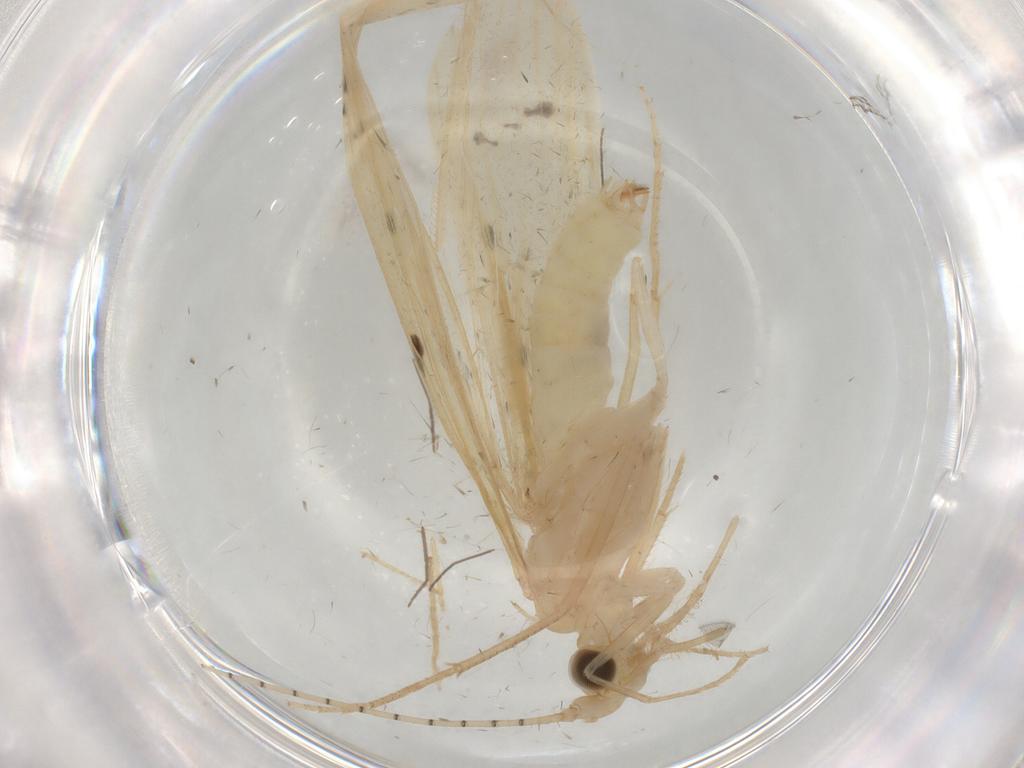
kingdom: Animalia
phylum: Arthropoda
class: Insecta
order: Trichoptera
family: Leptoceridae
